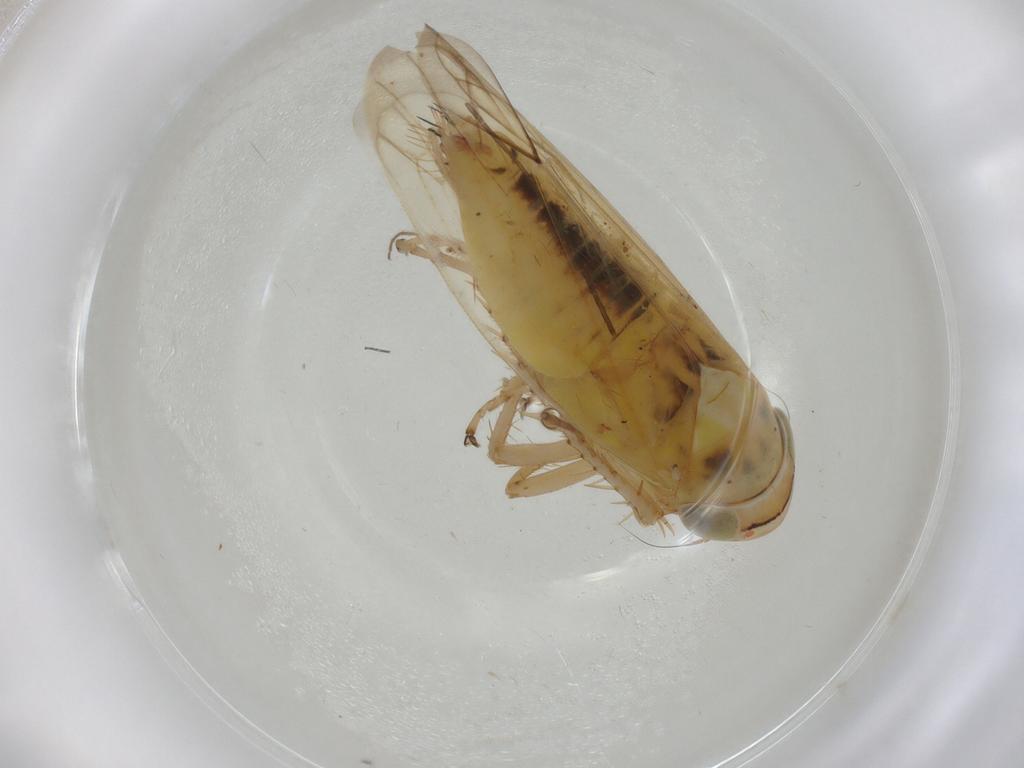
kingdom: Animalia
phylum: Arthropoda
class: Insecta
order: Hemiptera
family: Cicadellidae
